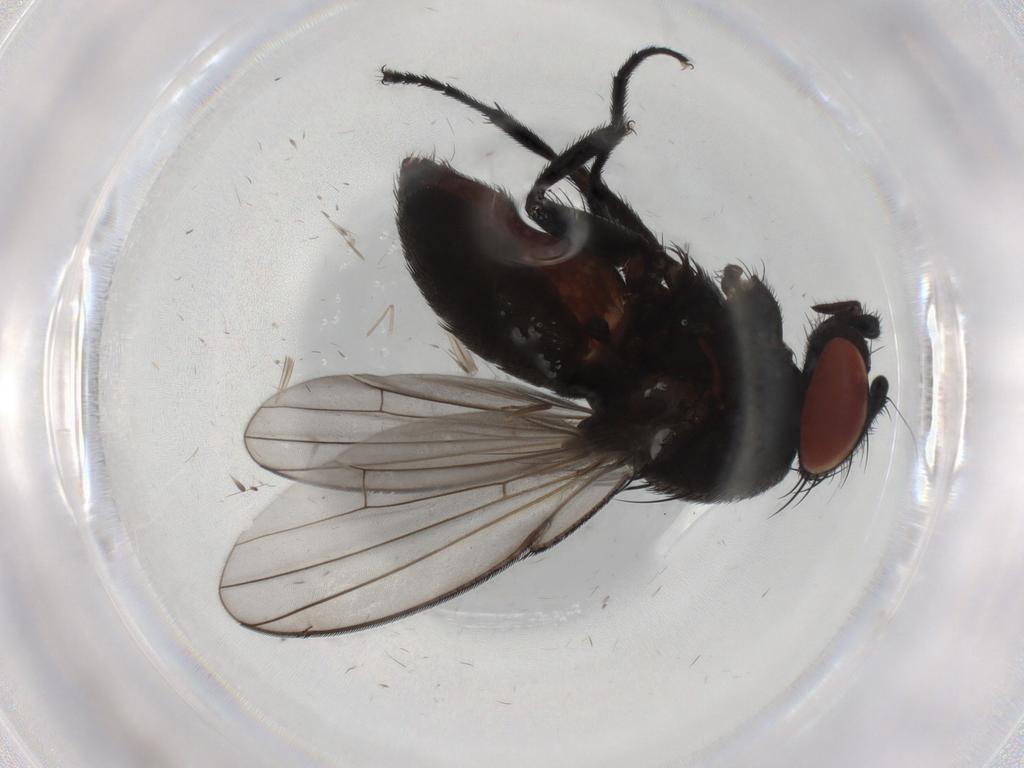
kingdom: Animalia
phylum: Arthropoda
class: Insecta
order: Diptera
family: Milichiidae
